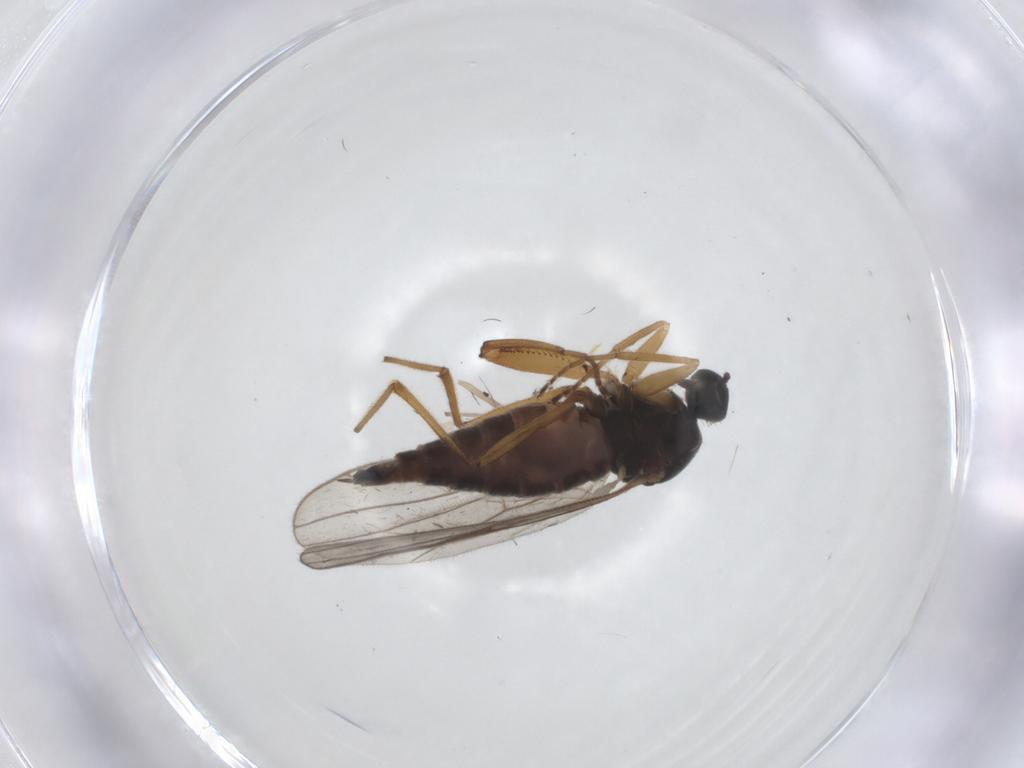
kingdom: Animalia
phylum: Arthropoda
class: Insecta
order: Diptera
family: Hybotidae
